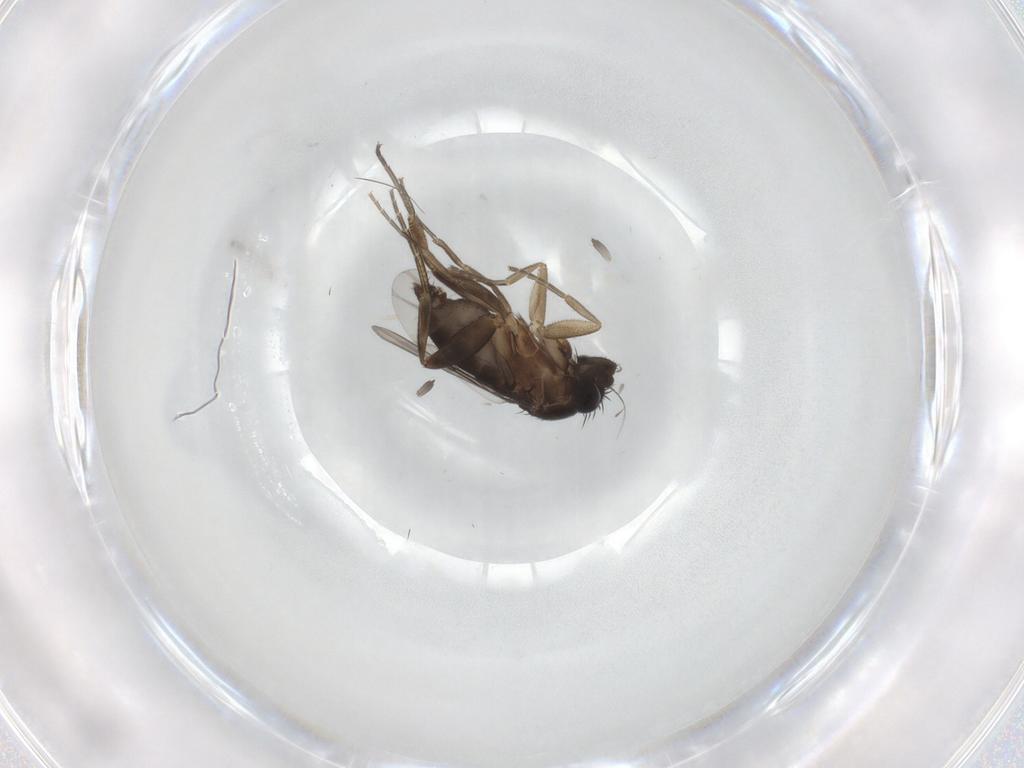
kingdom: Animalia
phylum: Arthropoda
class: Insecta
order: Diptera
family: Phoridae
